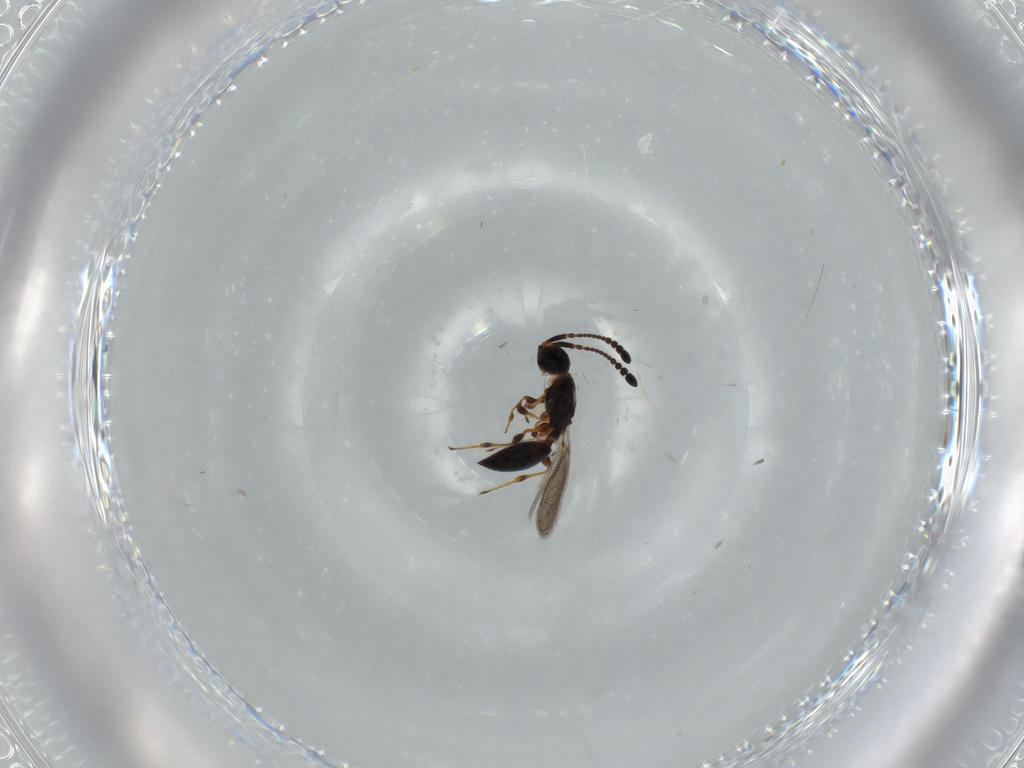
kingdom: Animalia
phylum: Arthropoda
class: Insecta
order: Hymenoptera
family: Diapriidae
